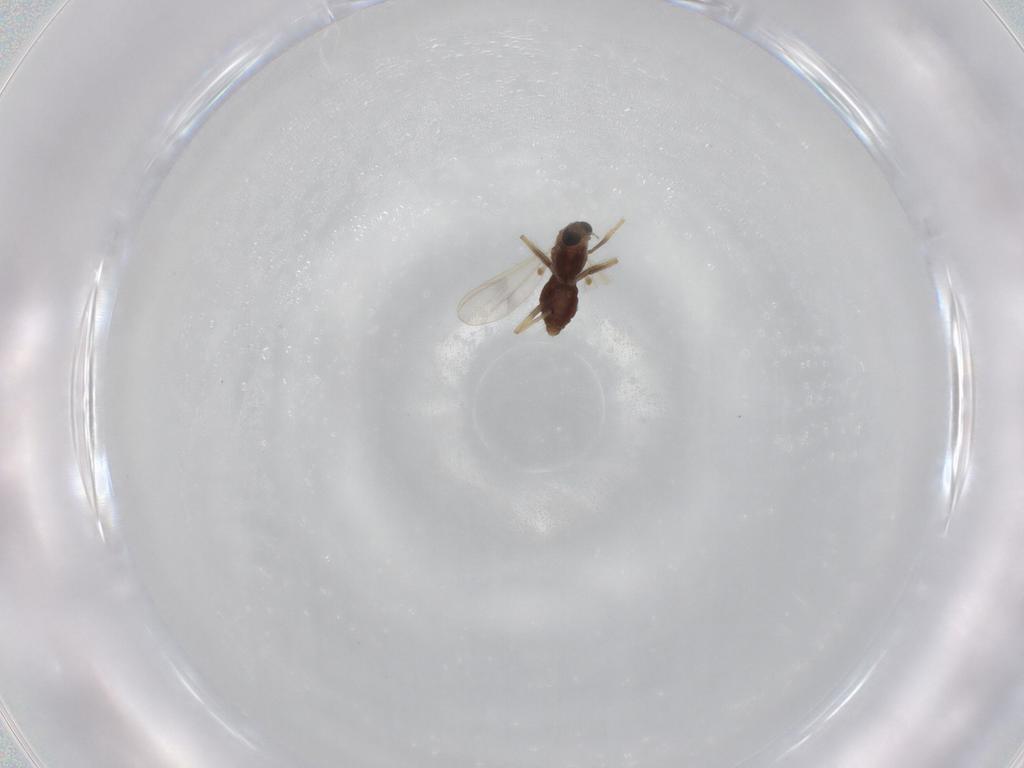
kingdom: Animalia
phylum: Arthropoda
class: Insecta
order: Diptera
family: Chironomidae
